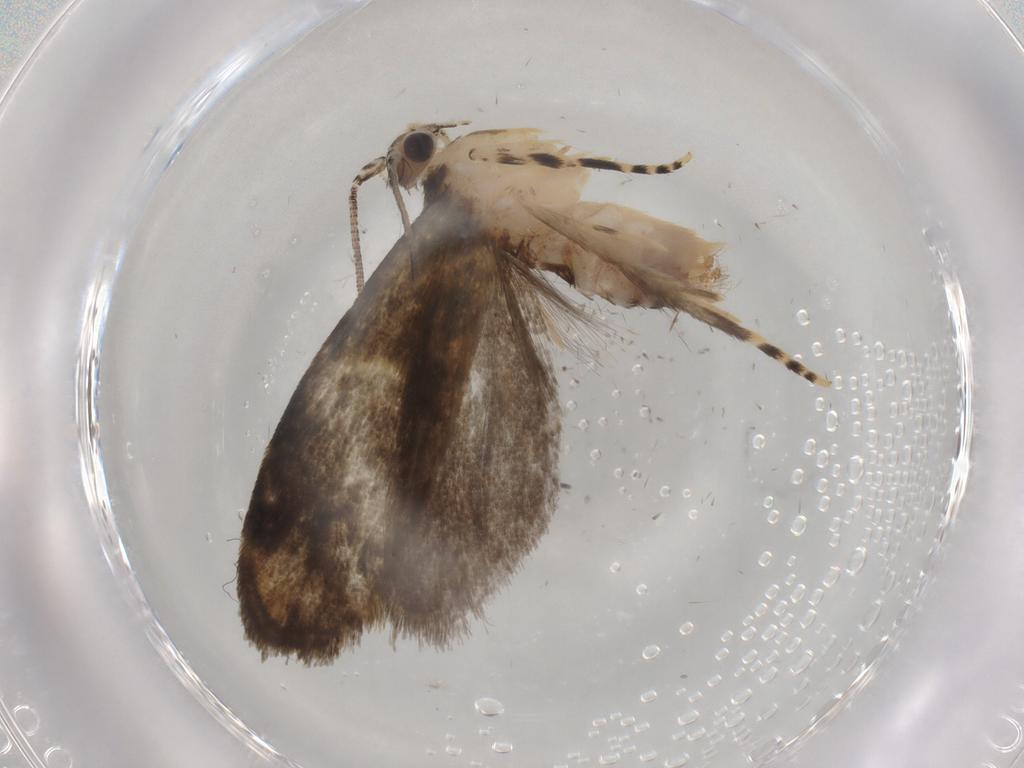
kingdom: Animalia
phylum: Arthropoda
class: Insecta
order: Lepidoptera
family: Tineidae
